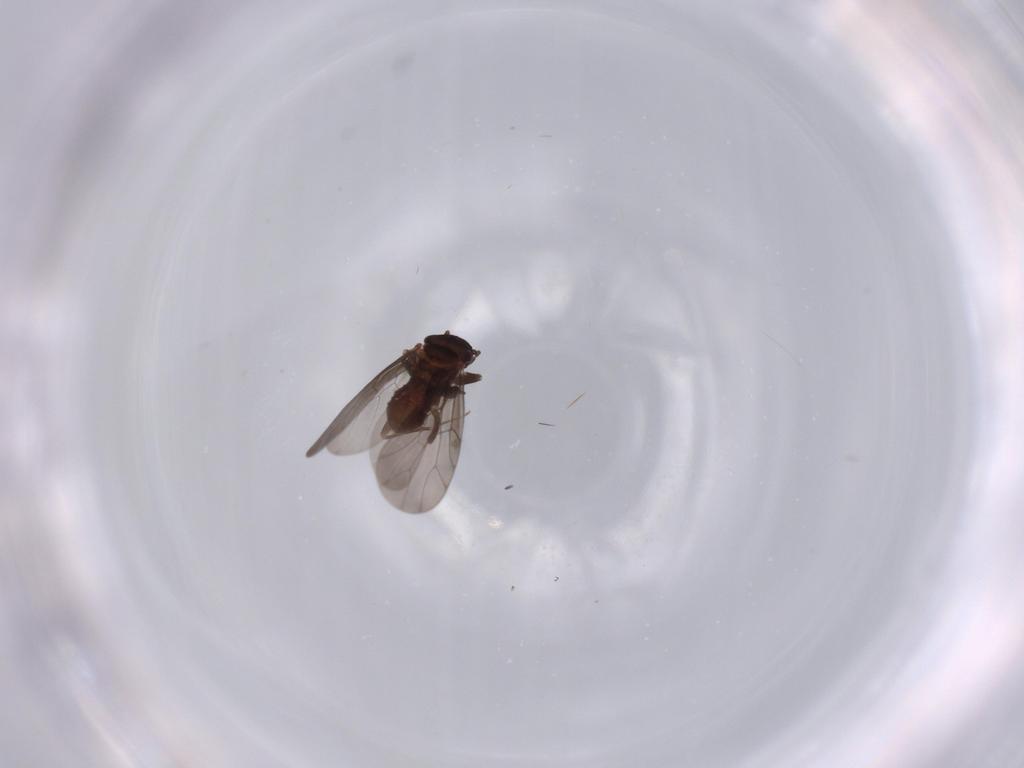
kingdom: Animalia
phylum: Arthropoda
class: Insecta
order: Psocodea
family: Lepidopsocidae
